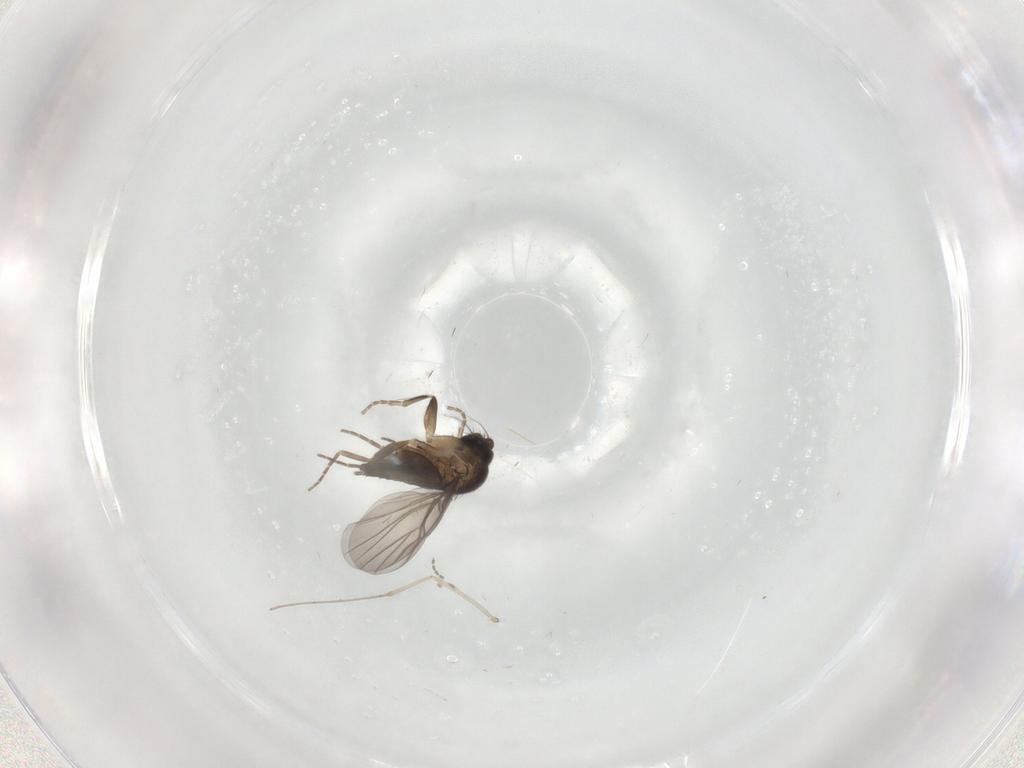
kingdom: Animalia
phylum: Arthropoda
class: Insecta
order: Diptera
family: Phoridae
